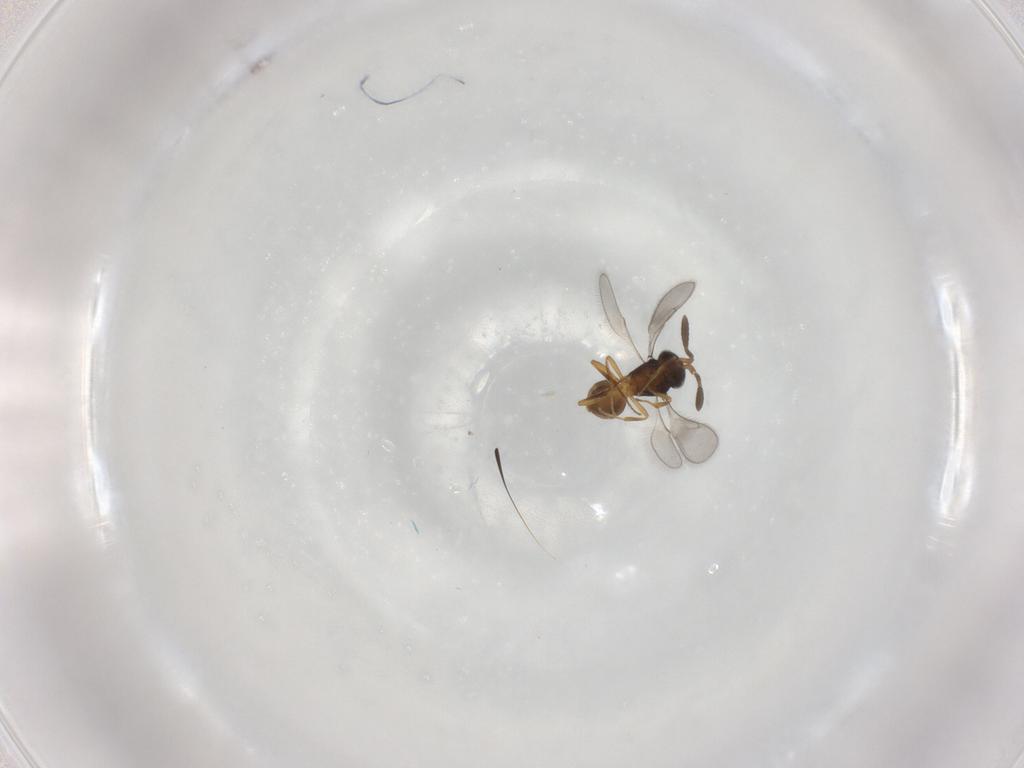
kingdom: Animalia
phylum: Arthropoda
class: Insecta
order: Hymenoptera
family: Scelionidae
